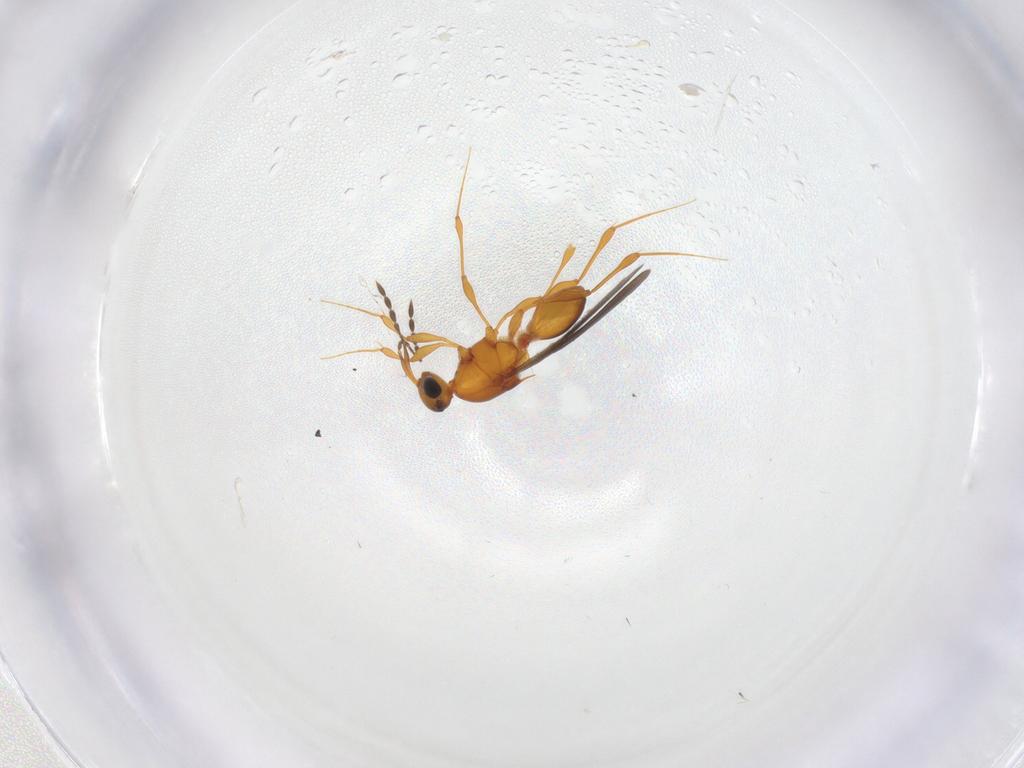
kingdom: Animalia
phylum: Arthropoda
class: Insecta
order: Hymenoptera
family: Platygastridae
